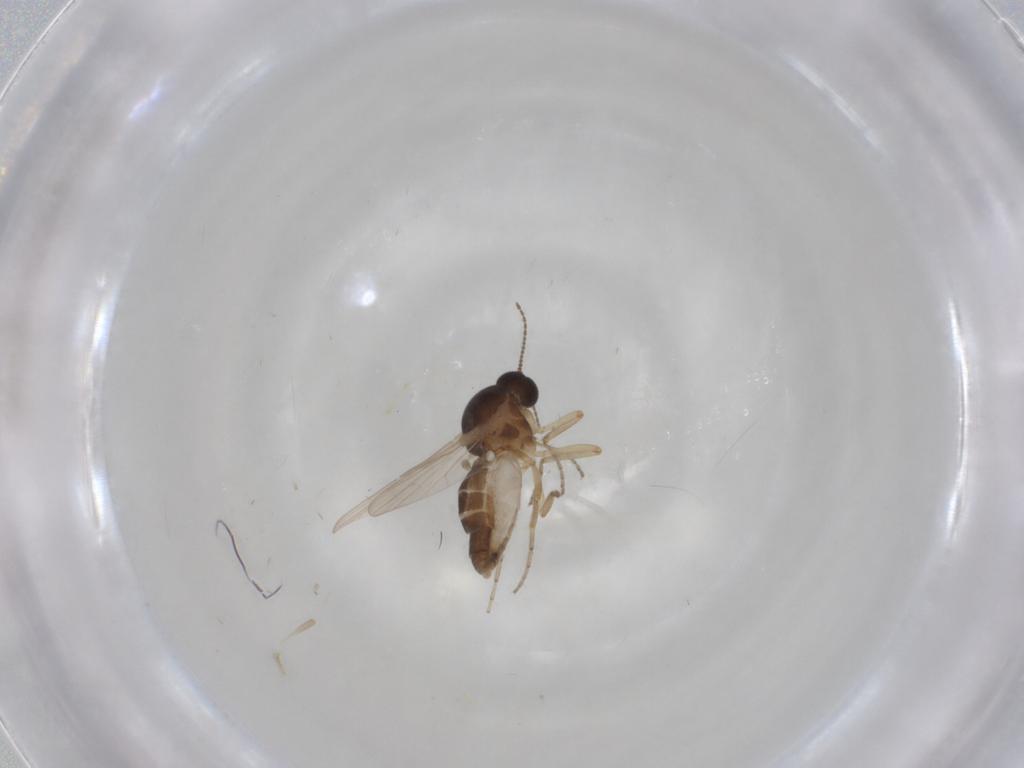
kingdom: Animalia
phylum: Arthropoda
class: Insecta
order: Diptera
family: Ceratopogonidae
